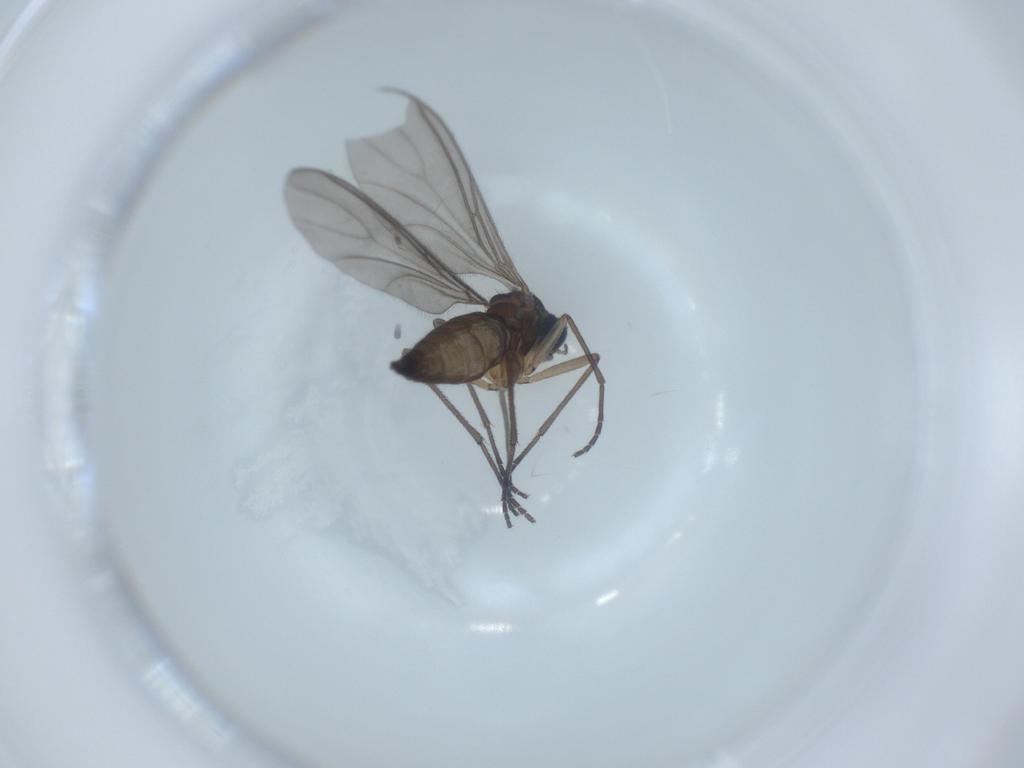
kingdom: Animalia
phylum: Arthropoda
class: Insecta
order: Diptera
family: Sciaridae
